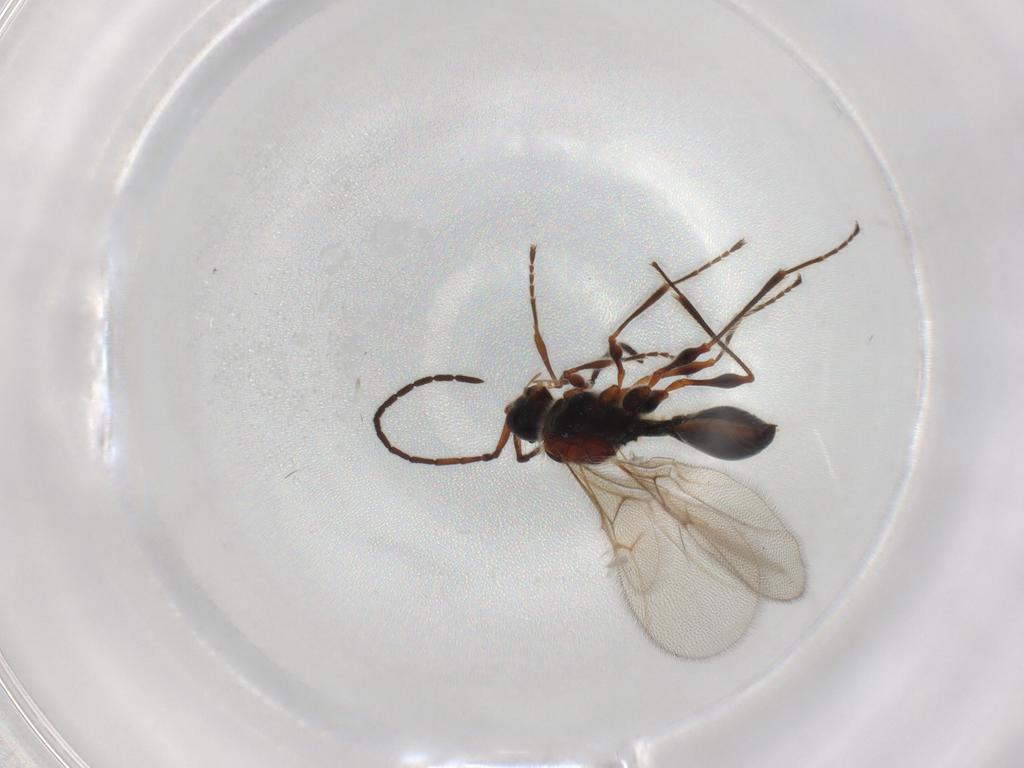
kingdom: Animalia
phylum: Arthropoda
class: Insecta
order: Hymenoptera
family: Diapriidae
